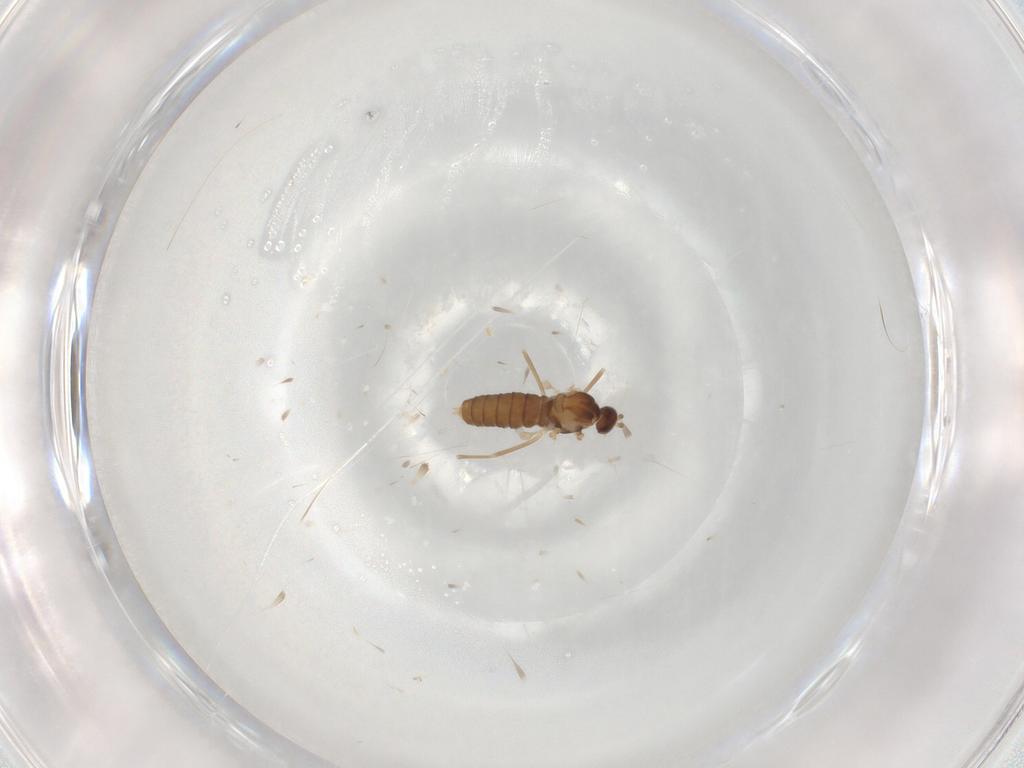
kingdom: Animalia
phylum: Arthropoda
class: Insecta
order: Diptera
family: Cecidomyiidae
